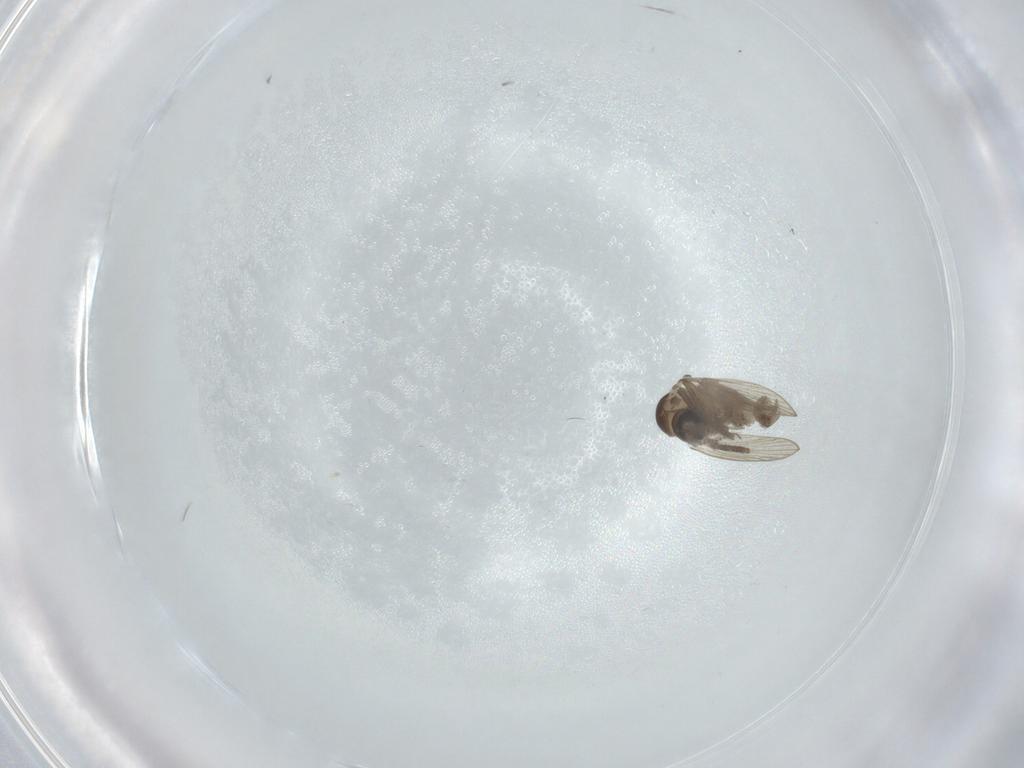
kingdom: Animalia
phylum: Arthropoda
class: Insecta
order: Diptera
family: Psychodidae
